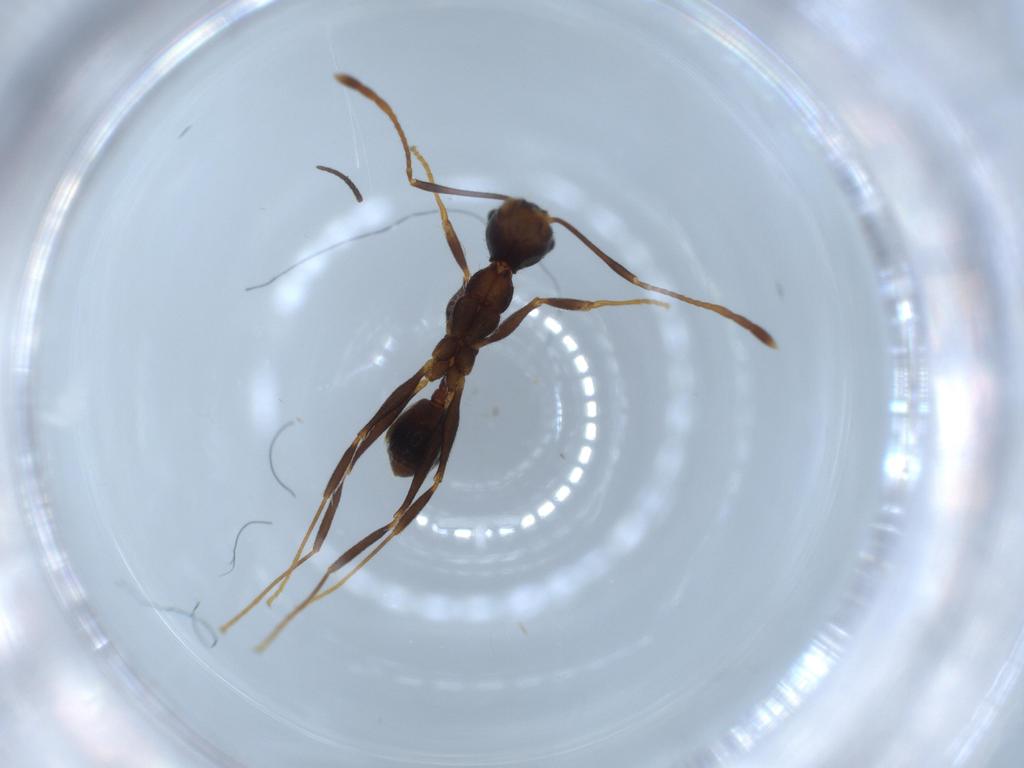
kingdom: Animalia
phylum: Arthropoda
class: Insecta
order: Hymenoptera
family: Formicidae
